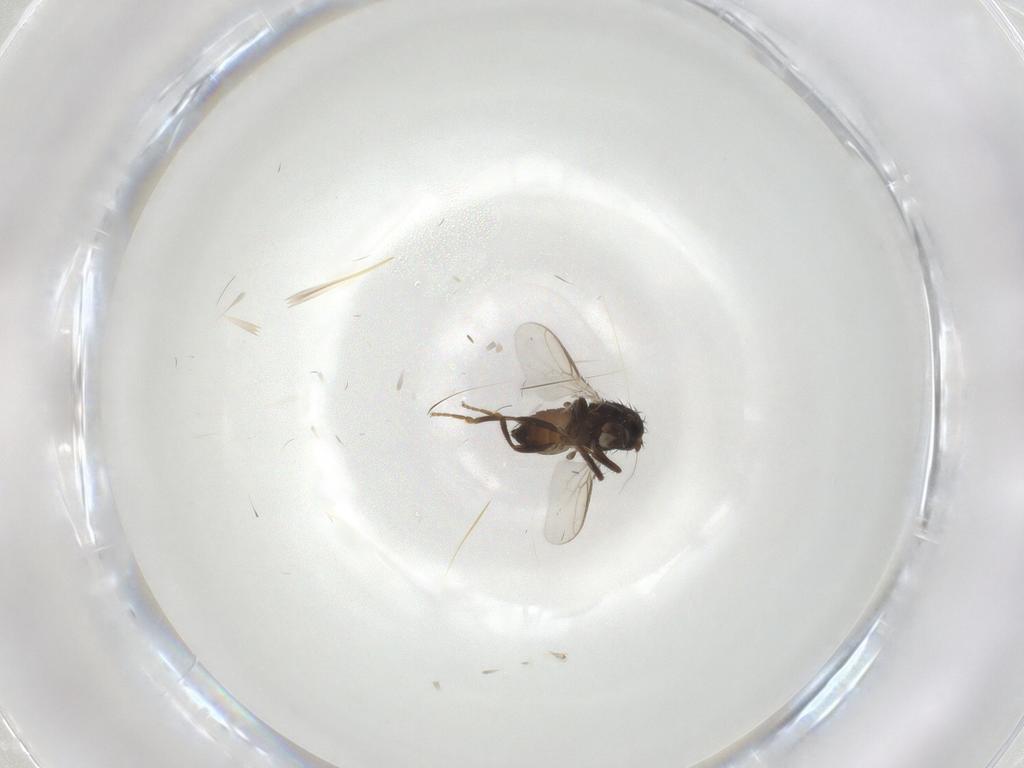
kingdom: Animalia
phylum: Arthropoda
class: Insecta
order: Diptera
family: Sphaeroceridae
